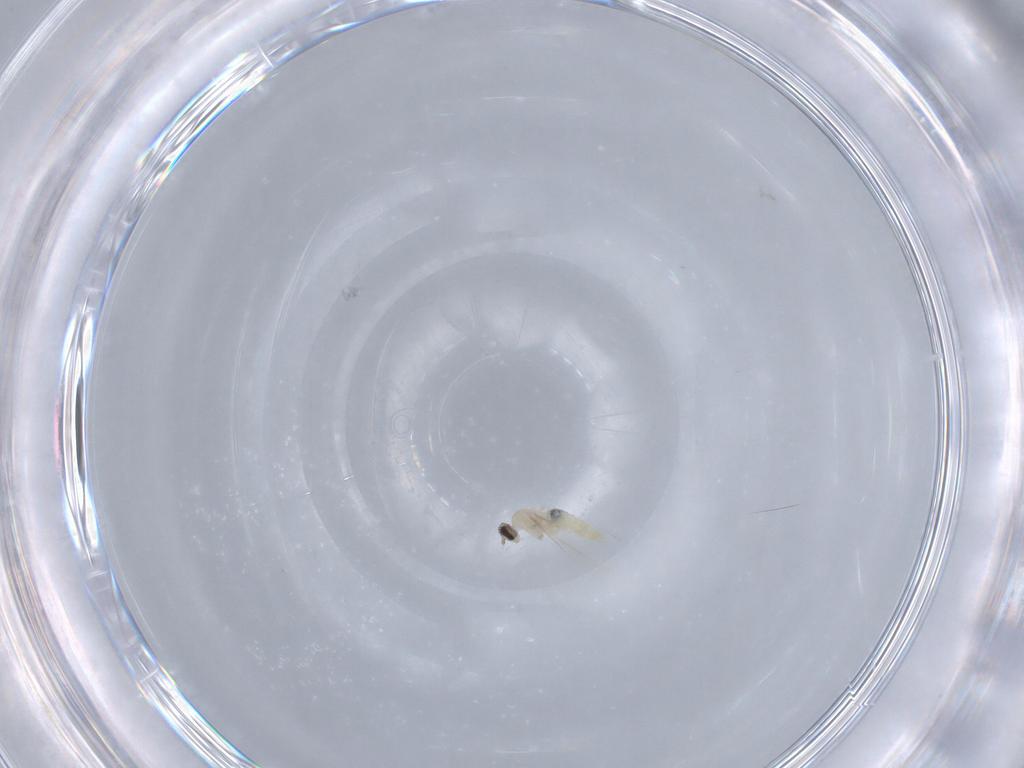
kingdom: Animalia
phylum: Arthropoda
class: Insecta
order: Diptera
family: Cecidomyiidae
